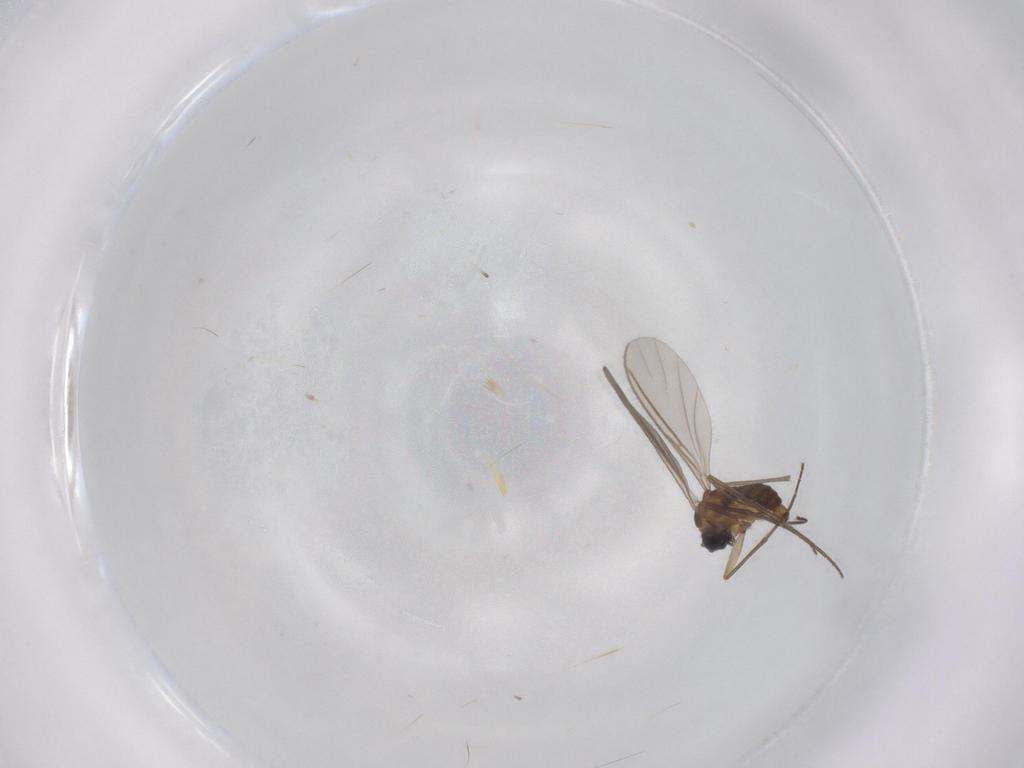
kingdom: Animalia
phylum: Arthropoda
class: Insecta
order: Diptera
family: Sciaridae
